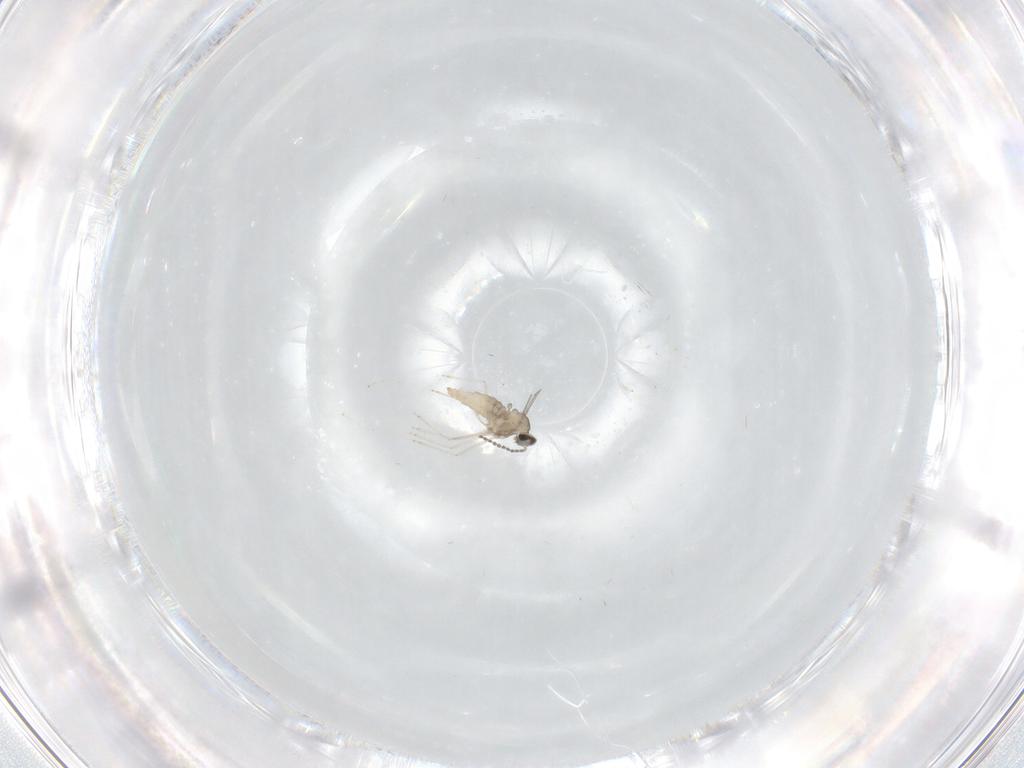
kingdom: Animalia
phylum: Arthropoda
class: Insecta
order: Diptera
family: Cecidomyiidae
